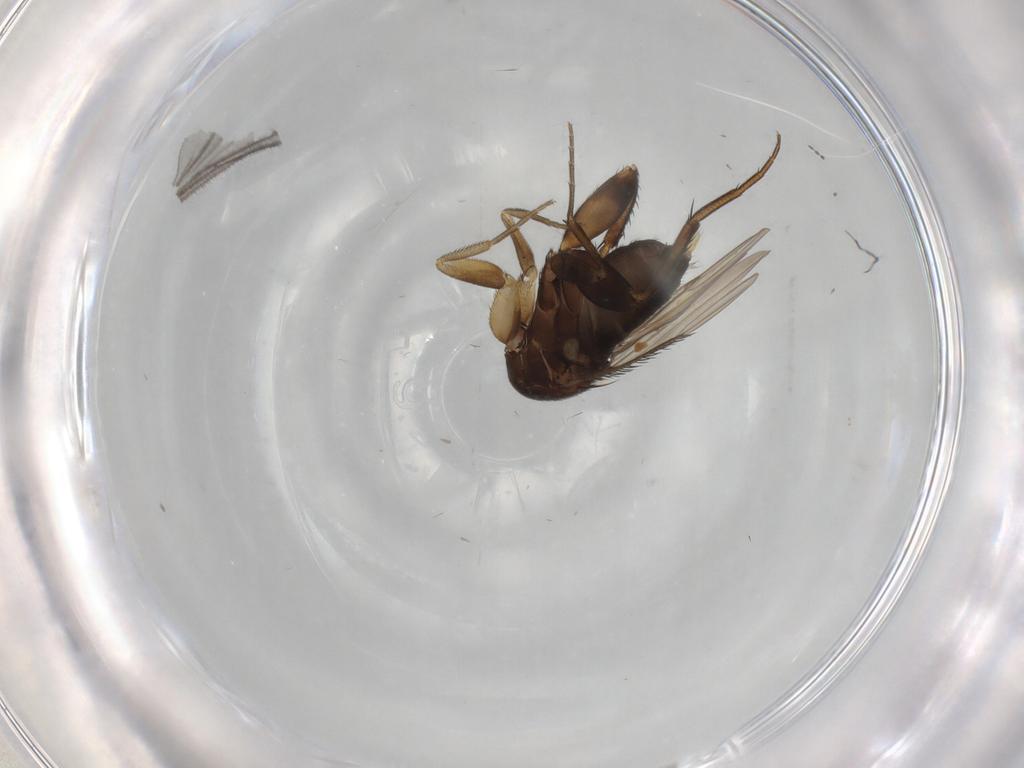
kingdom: Animalia
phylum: Arthropoda
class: Insecta
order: Diptera
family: Phoridae
